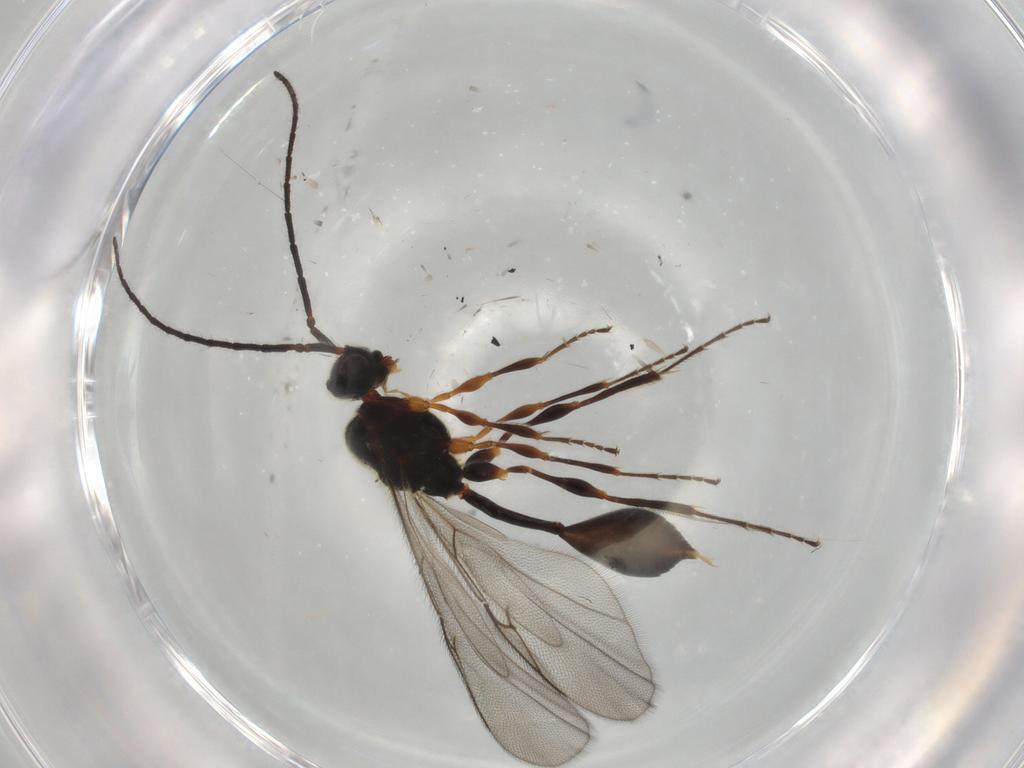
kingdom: Animalia
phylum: Arthropoda
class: Insecta
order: Hymenoptera
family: Diapriidae
